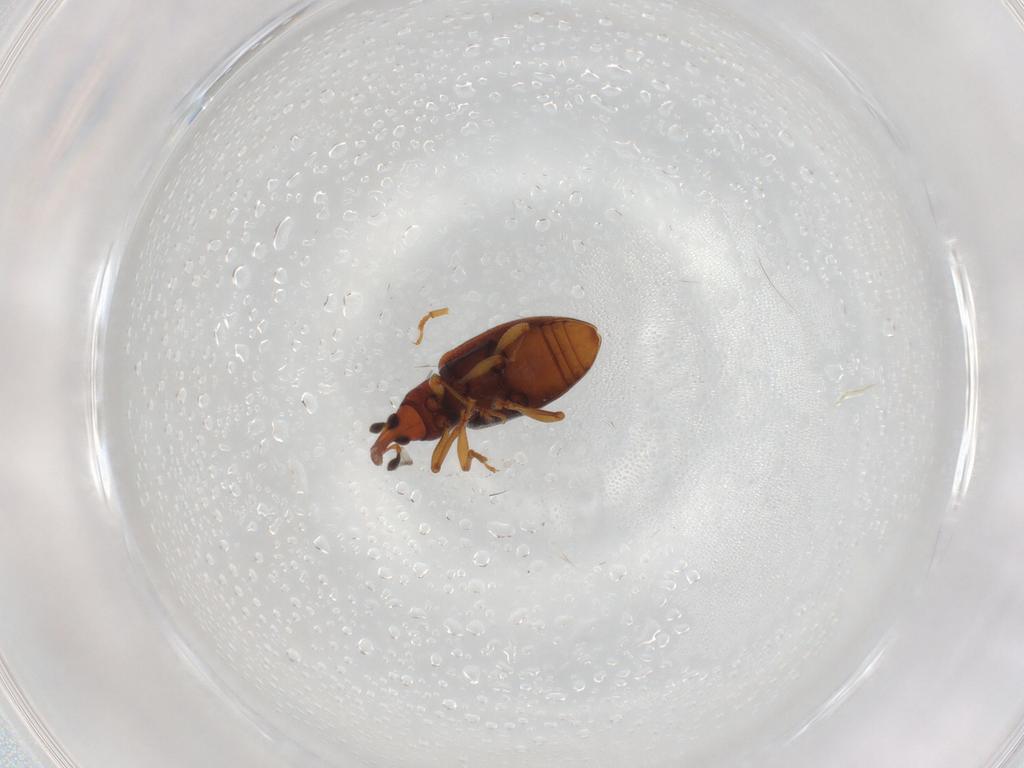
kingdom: Animalia
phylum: Arthropoda
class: Insecta
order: Coleoptera
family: Curculionidae
